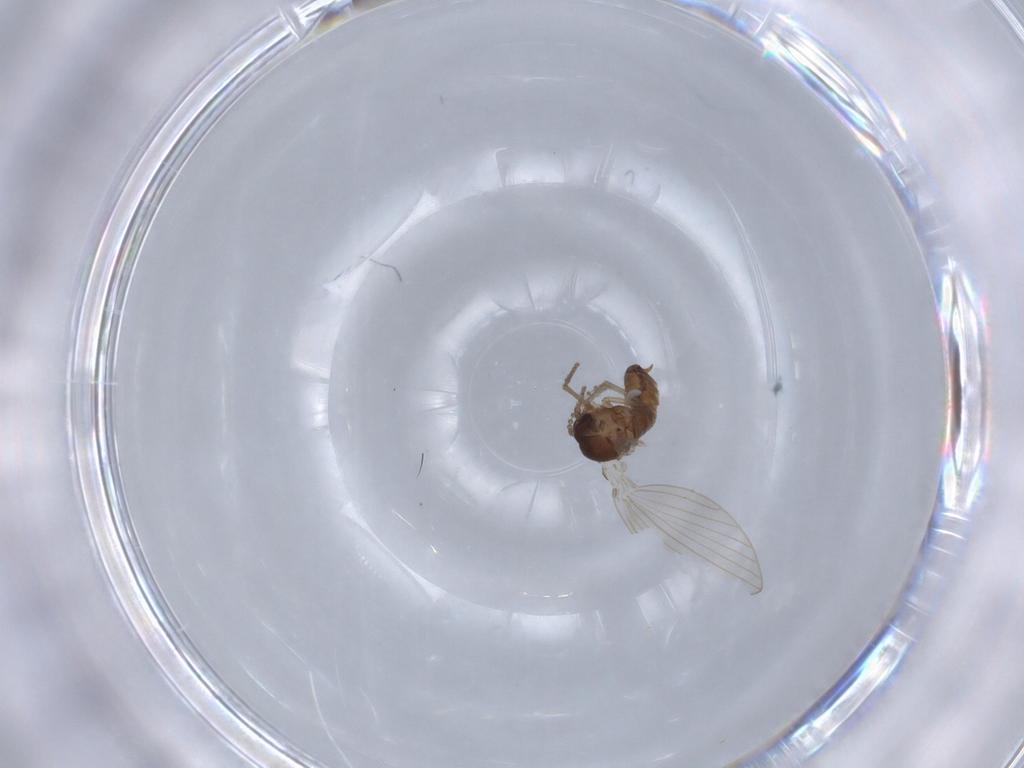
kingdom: Animalia
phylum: Arthropoda
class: Insecta
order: Diptera
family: Psychodidae
